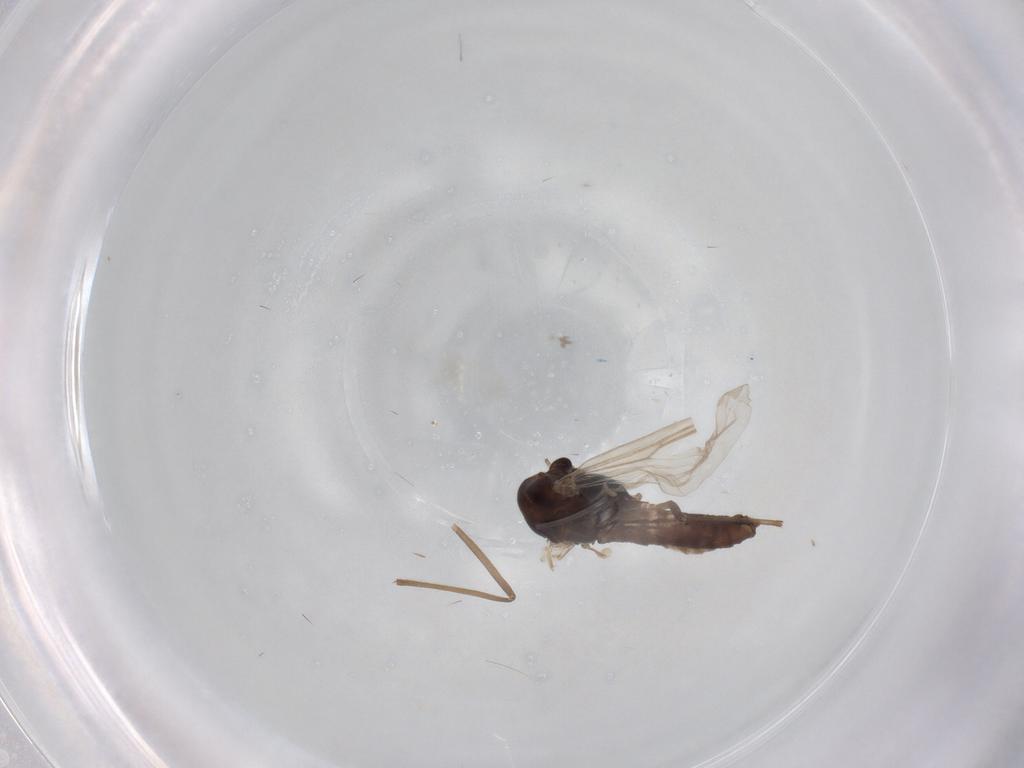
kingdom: Animalia
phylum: Arthropoda
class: Insecta
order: Diptera
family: Chironomidae
